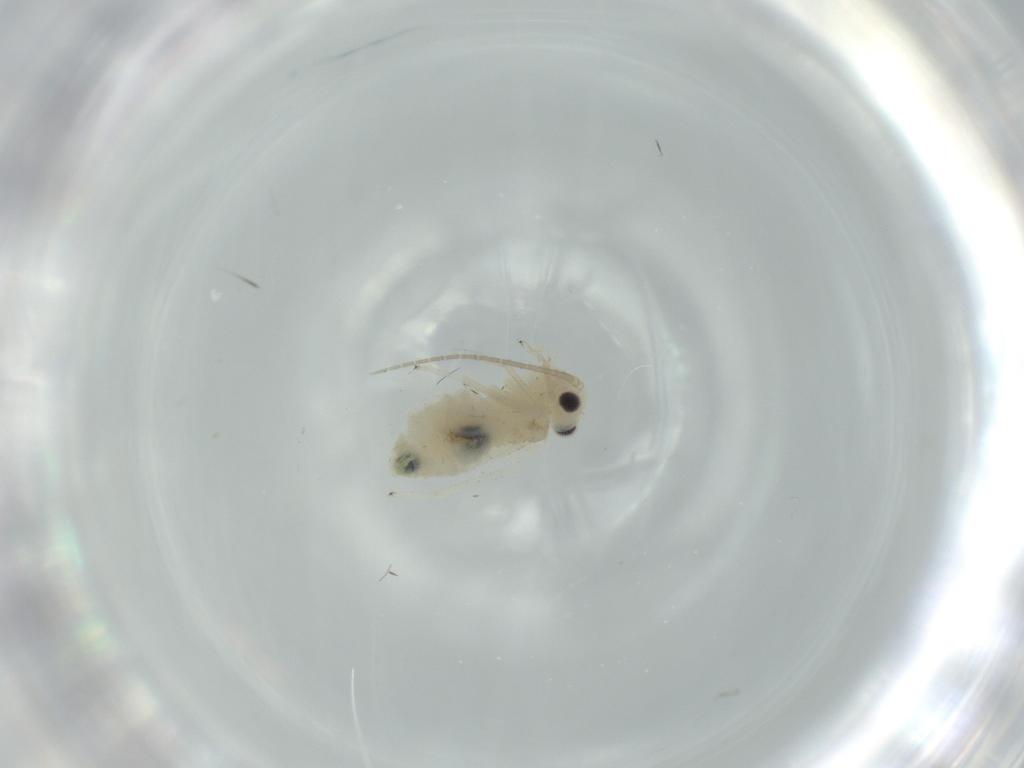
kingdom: Animalia
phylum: Arthropoda
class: Insecta
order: Psocodea
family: Caeciliusidae
